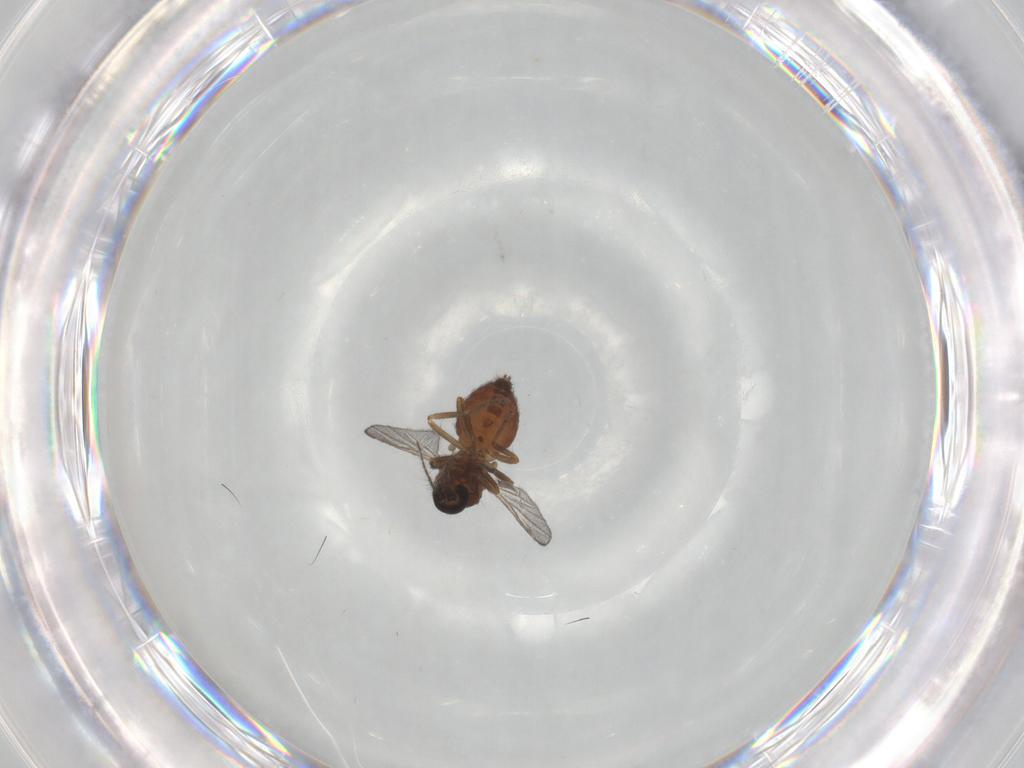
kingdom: Animalia
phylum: Arthropoda
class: Insecta
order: Diptera
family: Ceratopogonidae
